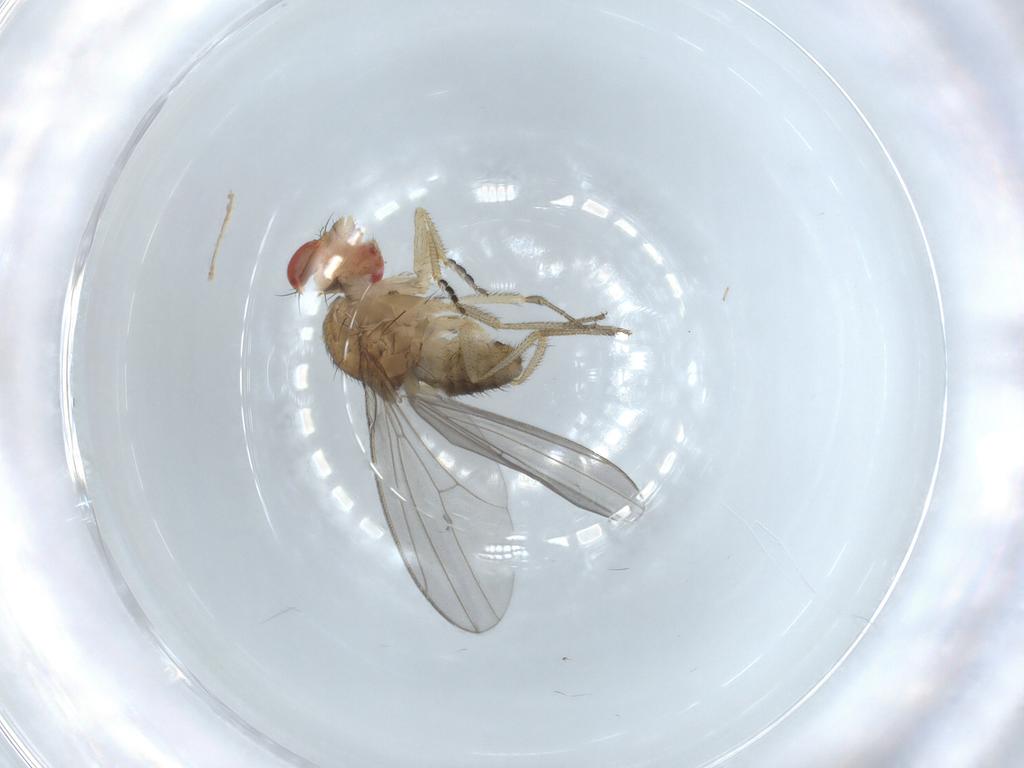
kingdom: Animalia
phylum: Arthropoda
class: Insecta
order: Diptera
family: Drosophilidae
